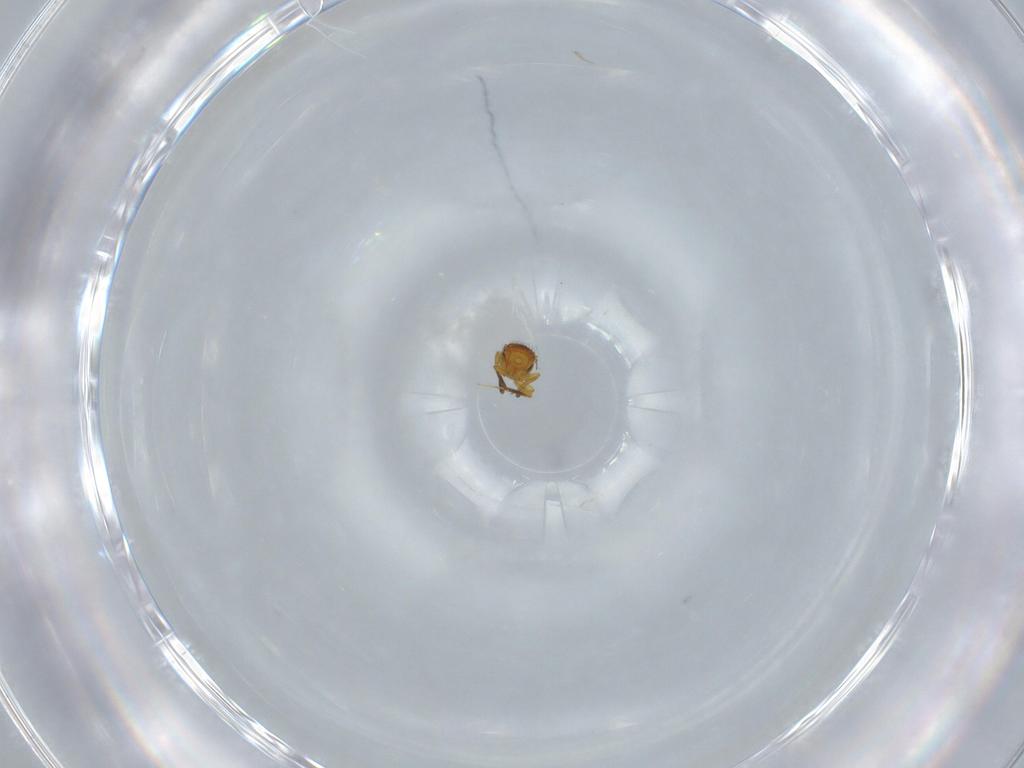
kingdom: Animalia
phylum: Arthropoda
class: Insecta
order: Hymenoptera
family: Scelionidae
